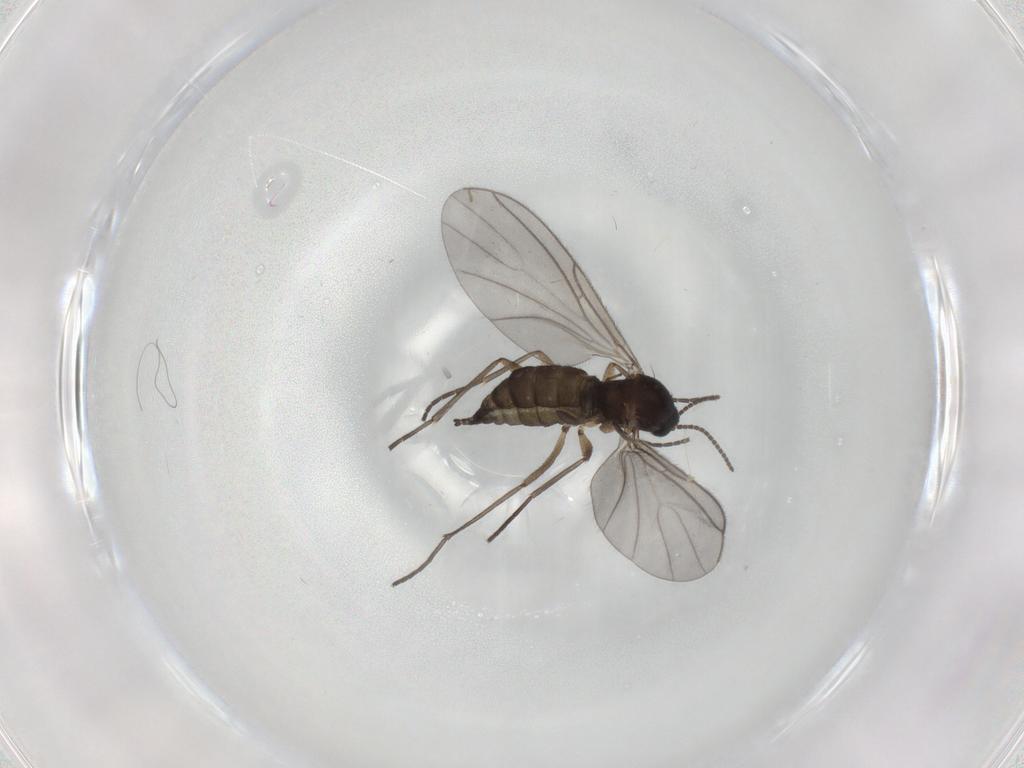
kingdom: Animalia
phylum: Arthropoda
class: Insecta
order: Diptera
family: Sciaridae
